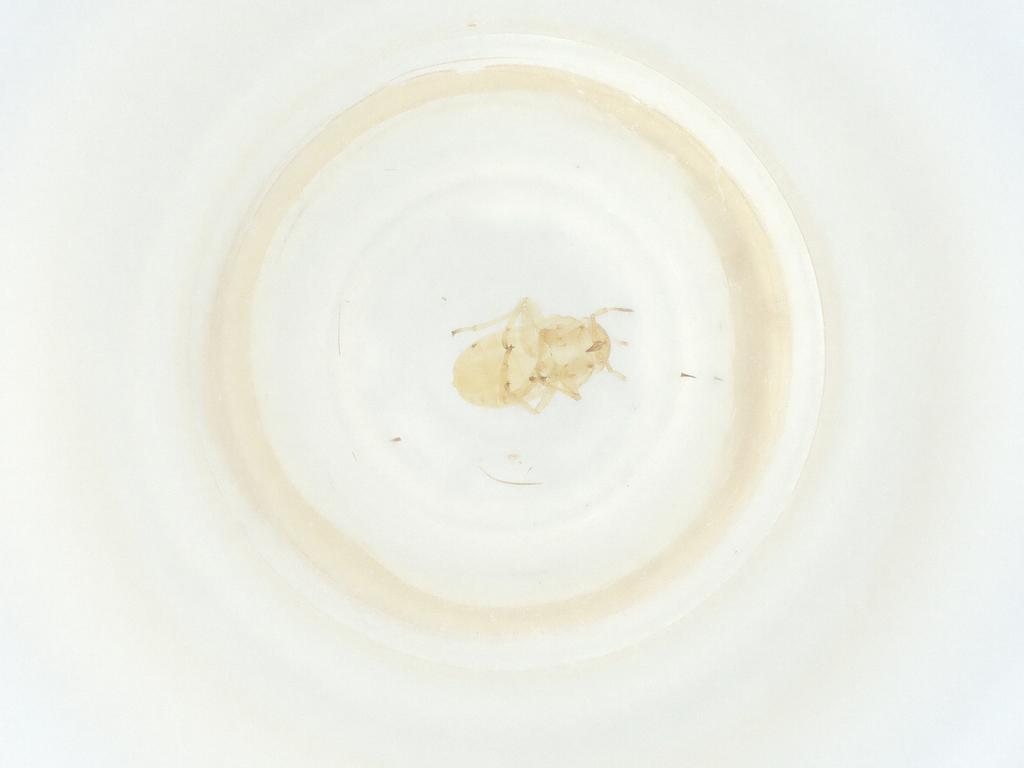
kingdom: Animalia
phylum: Arthropoda
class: Insecta
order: Hemiptera
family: Anthocoridae
